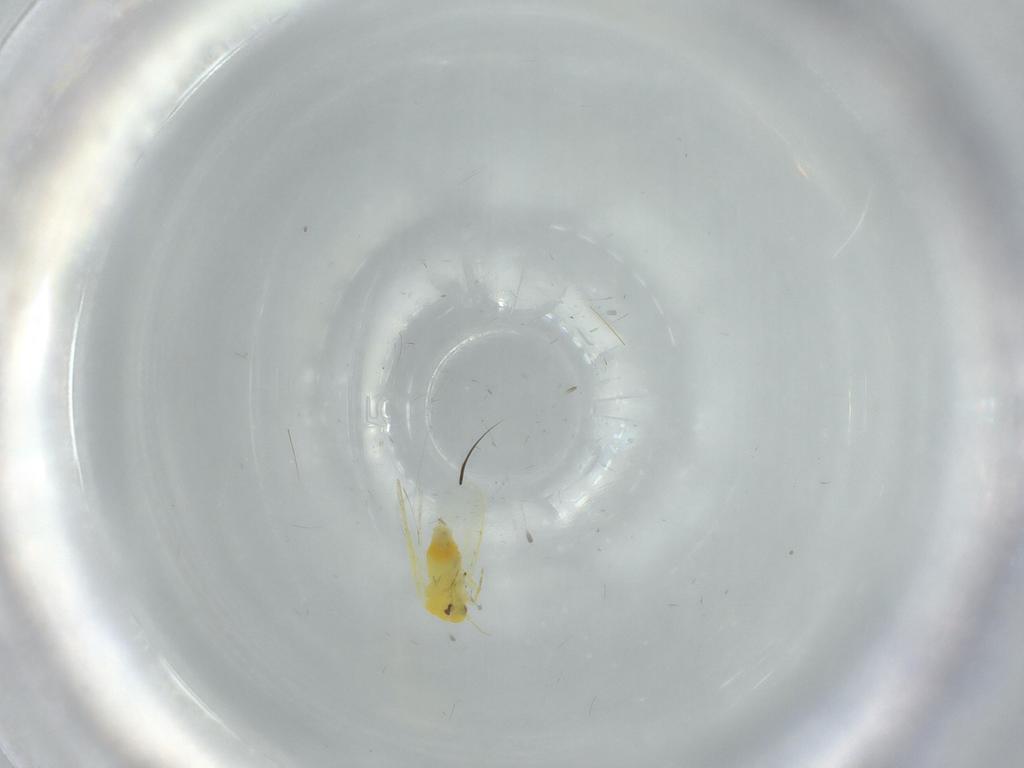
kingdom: Animalia
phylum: Arthropoda
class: Insecta
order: Hemiptera
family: Aleyrodidae
